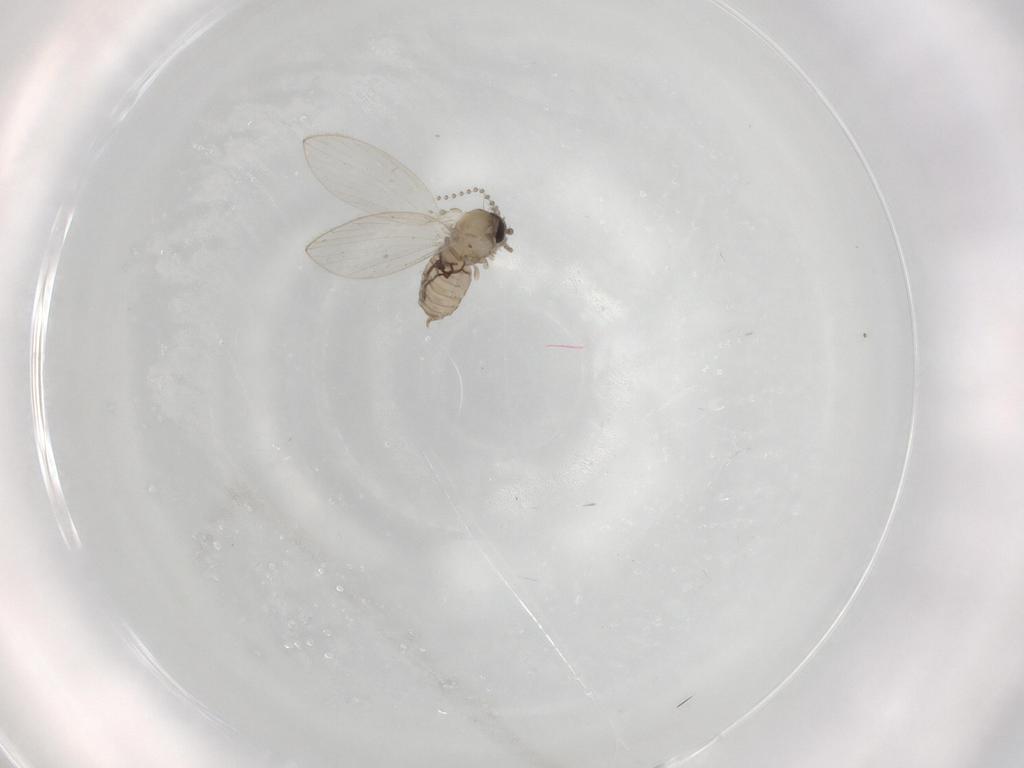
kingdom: Animalia
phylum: Arthropoda
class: Insecta
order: Diptera
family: Psychodidae
